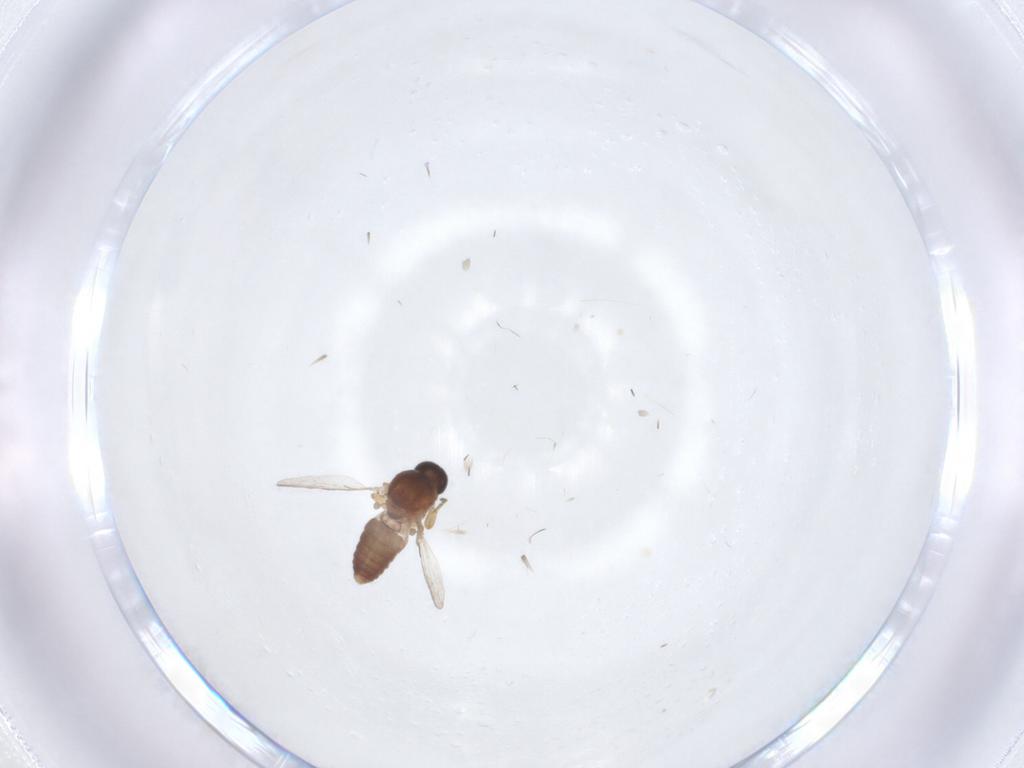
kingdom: Animalia
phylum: Arthropoda
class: Insecta
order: Diptera
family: Ceratopogonidae
